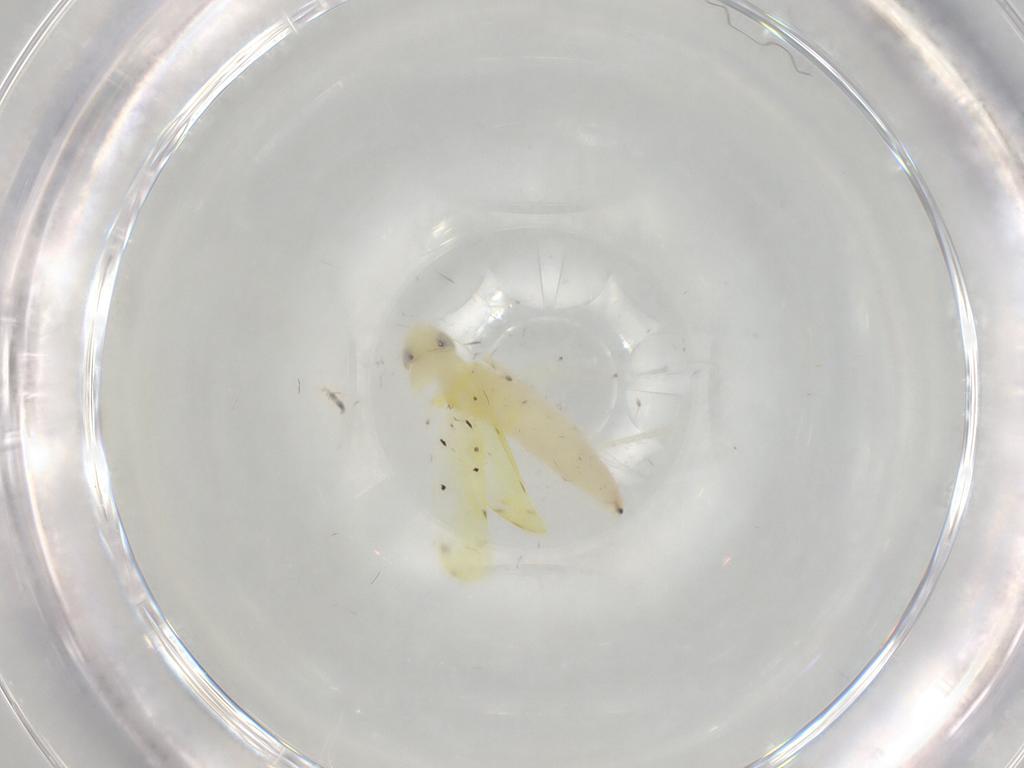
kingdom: Animalia
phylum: Arthropoda
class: Insecta
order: Hemiptera
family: Cicadellidae
